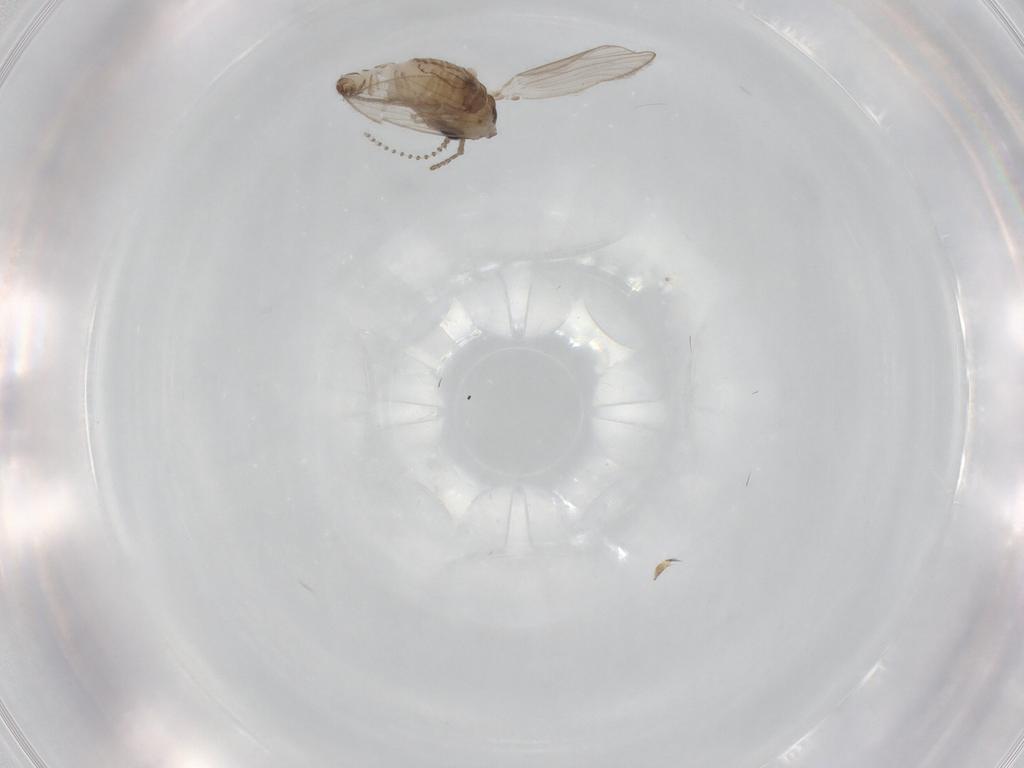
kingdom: Animalia
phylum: Arthropoda
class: Insecta
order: Diptera
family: Psychodidae
